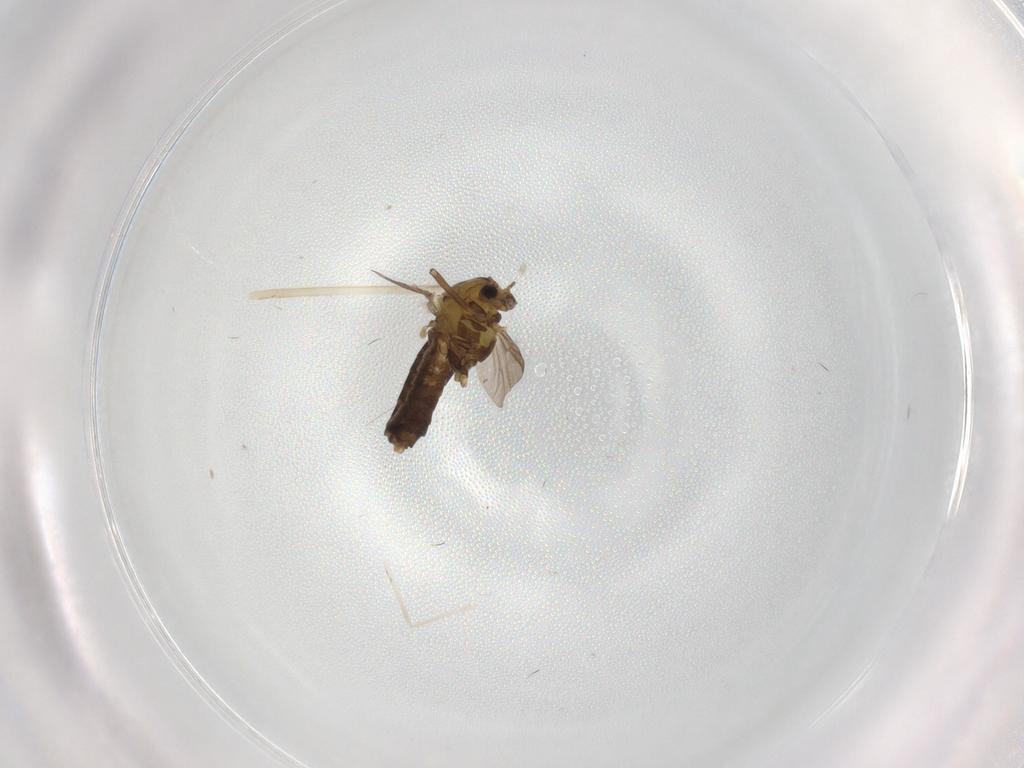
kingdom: Animalia
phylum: Arthropoda
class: Insecta
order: Diptera
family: Chironomidae
